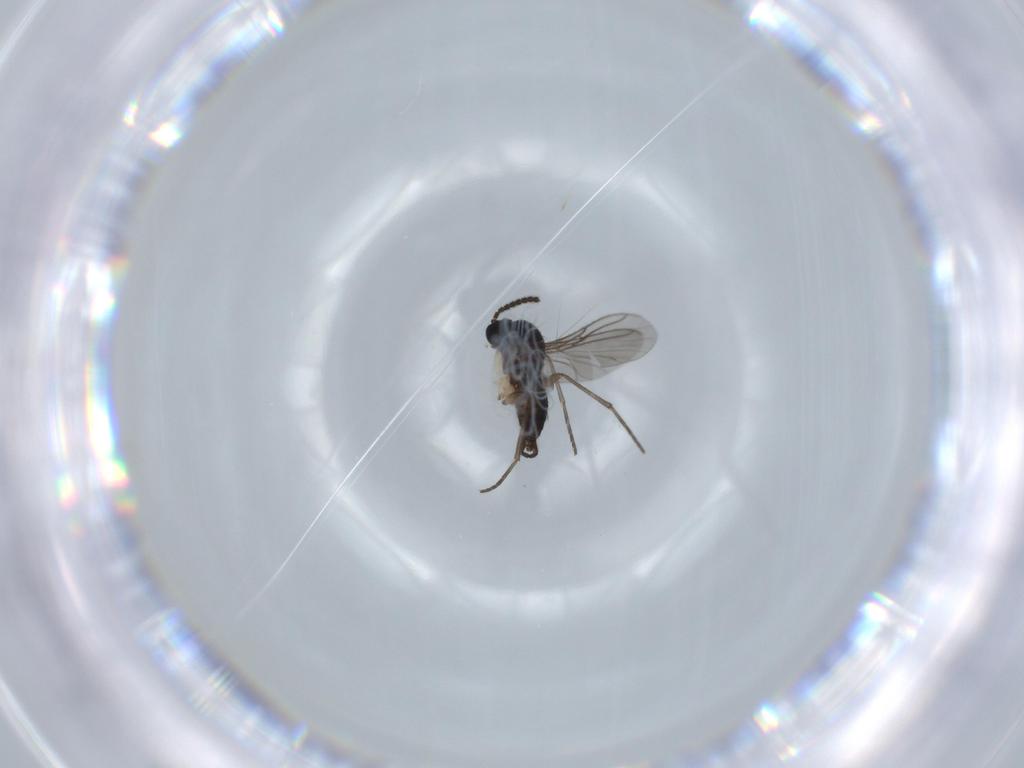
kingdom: Animalia
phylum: Arthropoda
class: Insecta
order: Diptera
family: Sciaridae
